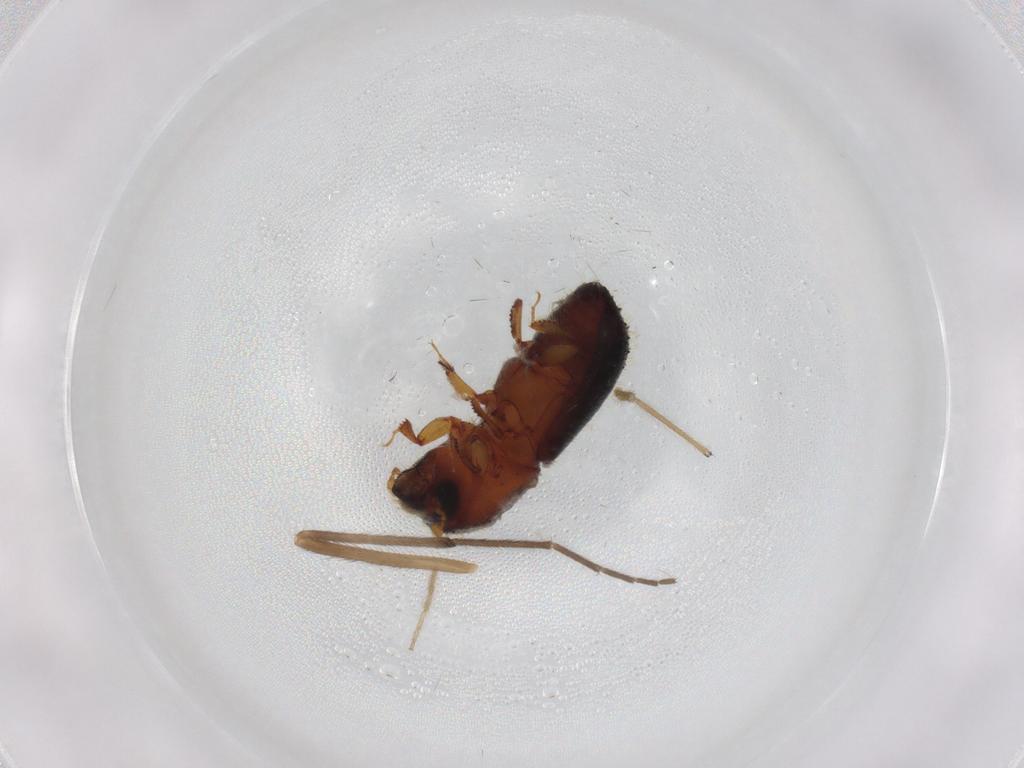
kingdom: Animalia
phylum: Arthropoda
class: Insecta
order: Coleoptera
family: Curculionidae
